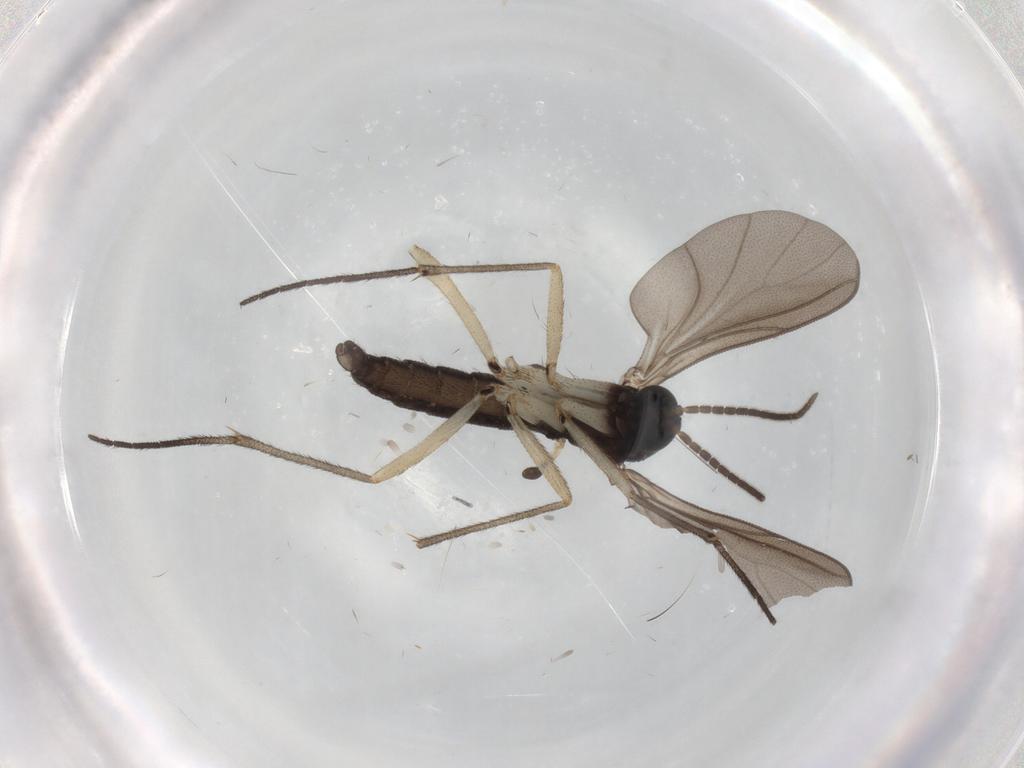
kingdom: Animalia
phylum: Arthropoda
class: Insecta
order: Diptera
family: Sciaridae
